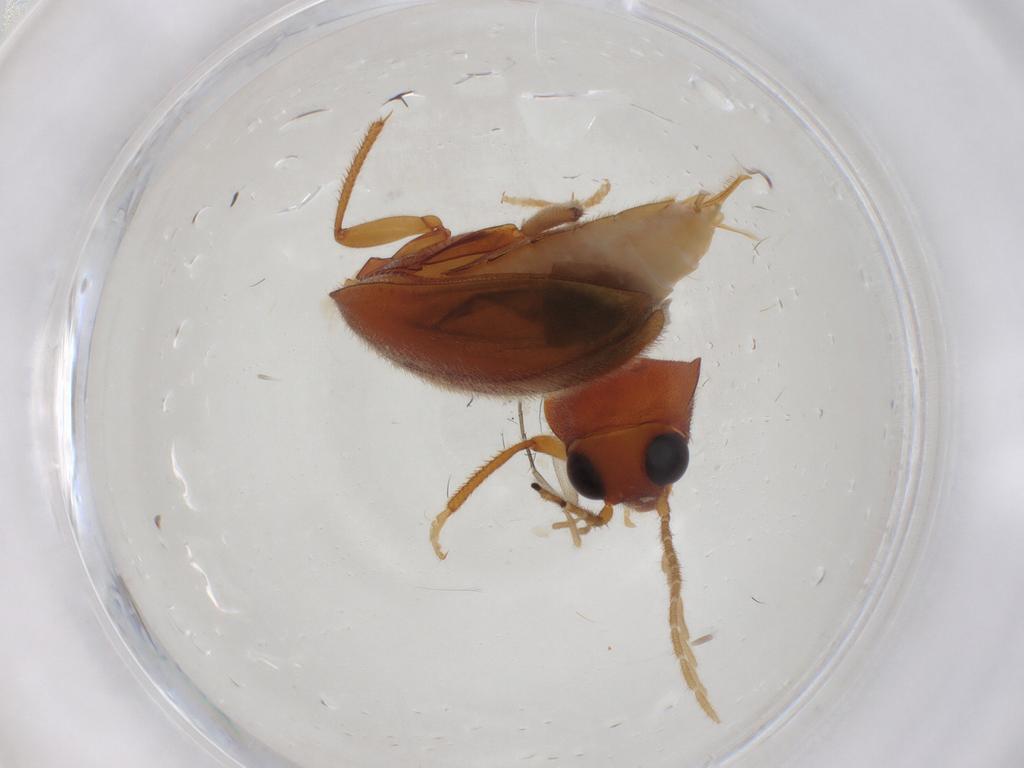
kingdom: Animalia
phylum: Arthropoda
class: Insecta
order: Coleoptera
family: Ptilodactylidae
